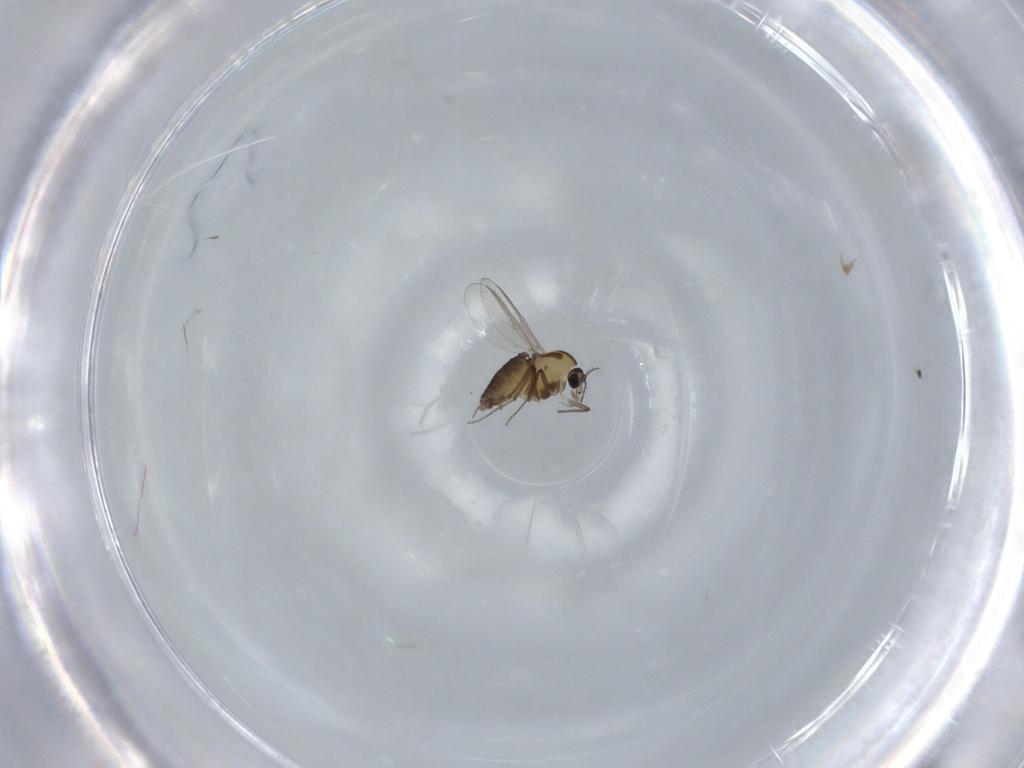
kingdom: Animalia
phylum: Arthropoda
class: Insecta
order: Diptera
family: Chironomidae
